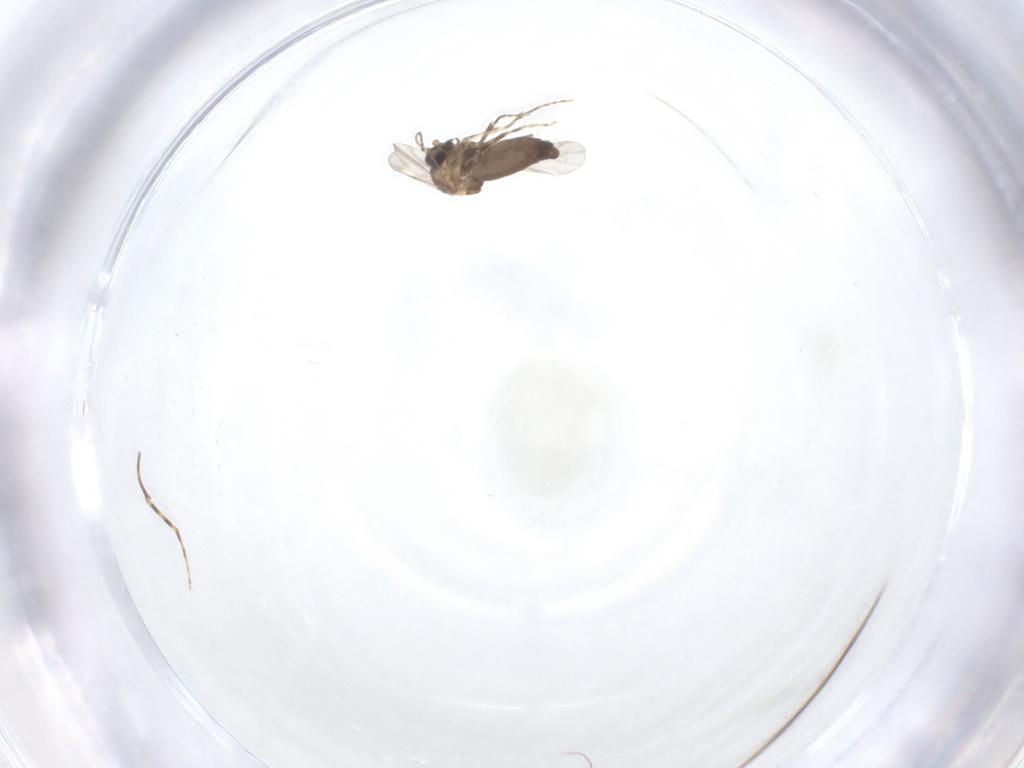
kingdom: Animalia
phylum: Arthropoda
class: Insecta
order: Diptera
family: Ceratopogonidae
